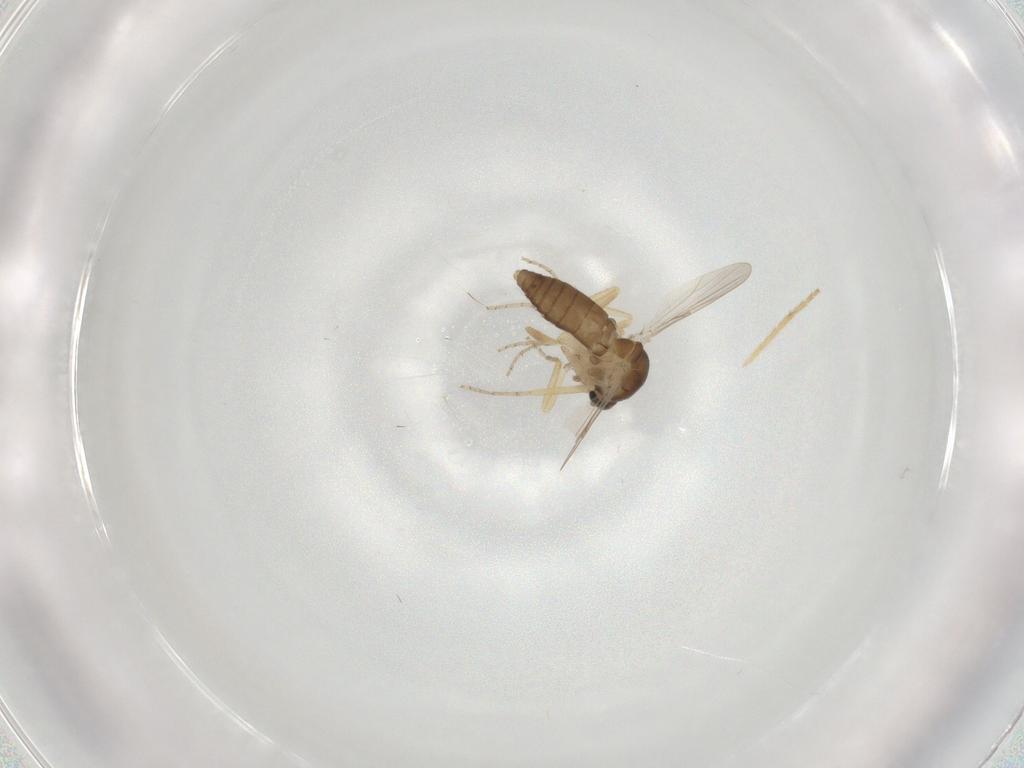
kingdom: Animalia
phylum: Arthropoda
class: Insecta
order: Diptera
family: Ceratopogonidae
